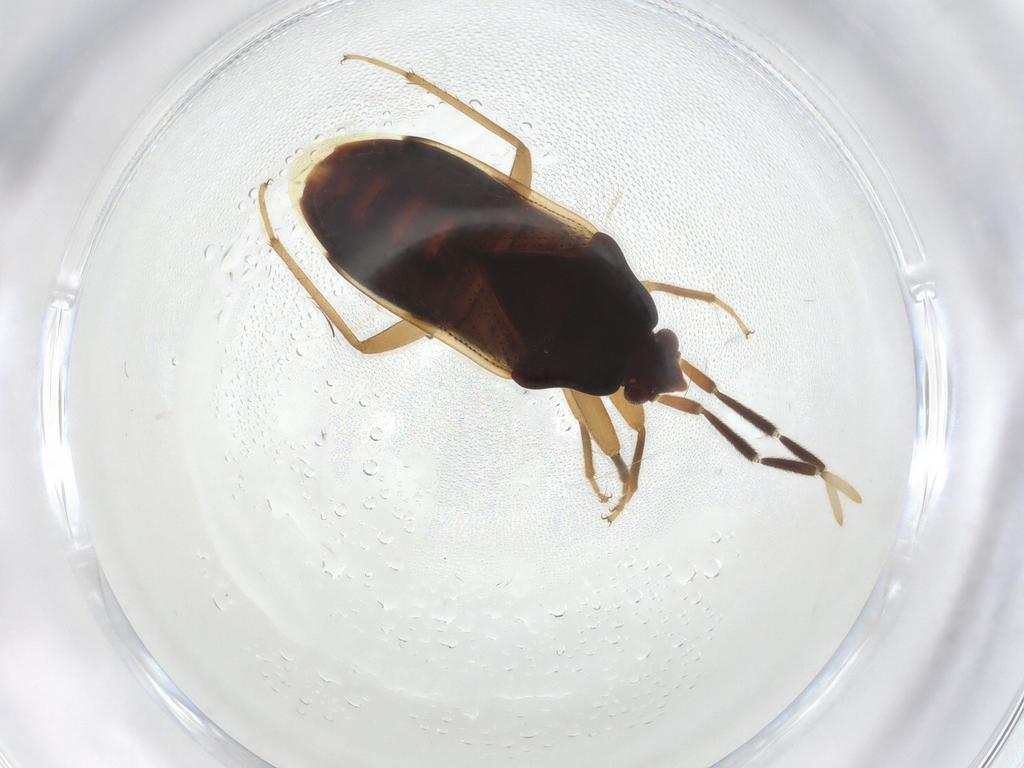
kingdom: Animalia
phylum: Arthropoda
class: Insecta
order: Hemiptera
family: Rhyparochromidae
